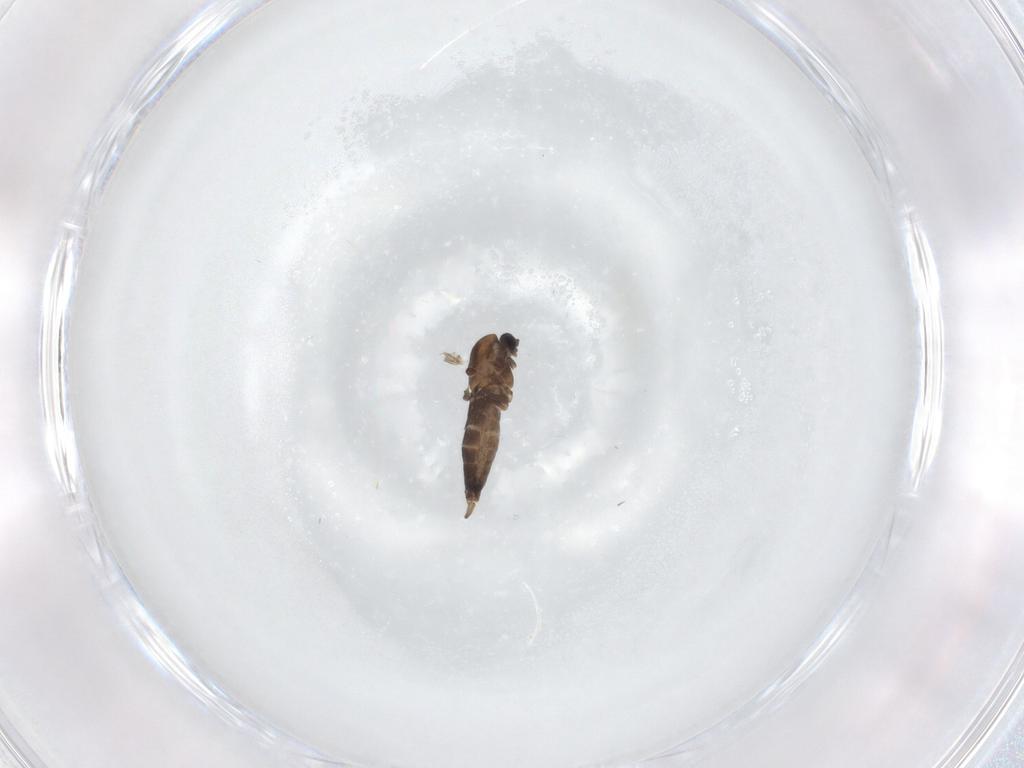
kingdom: Animalia
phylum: Arthropoda
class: Insecta
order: Diptera
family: Chironomidae
